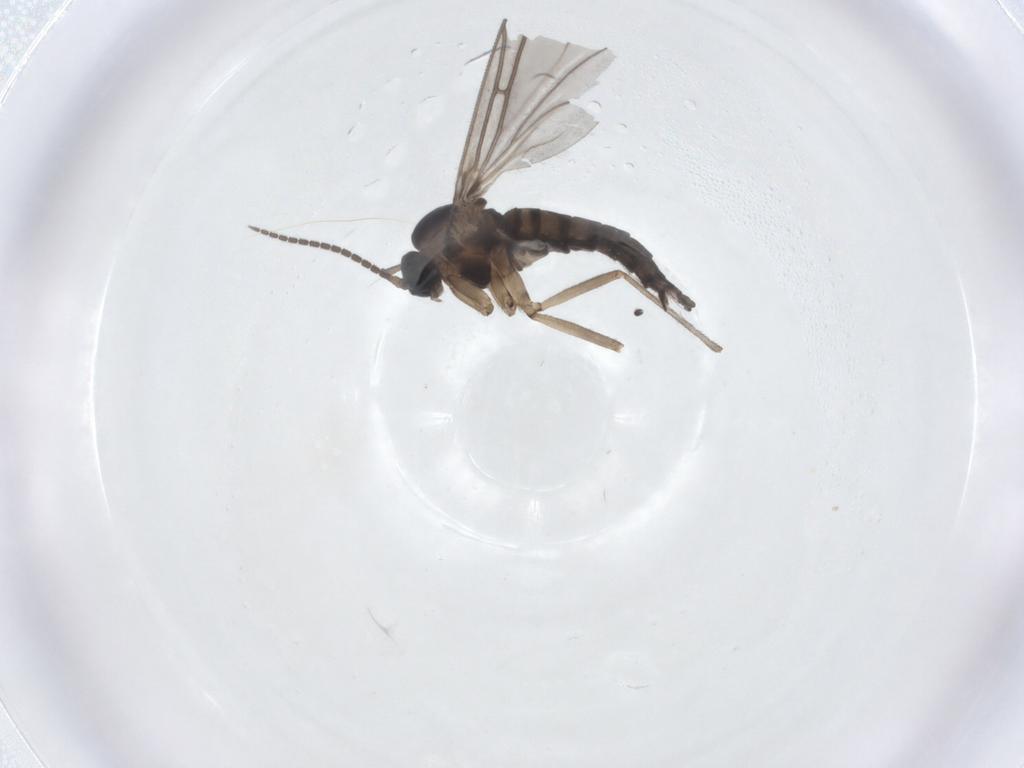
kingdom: Animalia
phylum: Arthropoda
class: Insecta
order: Diptera
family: Sciaridae
